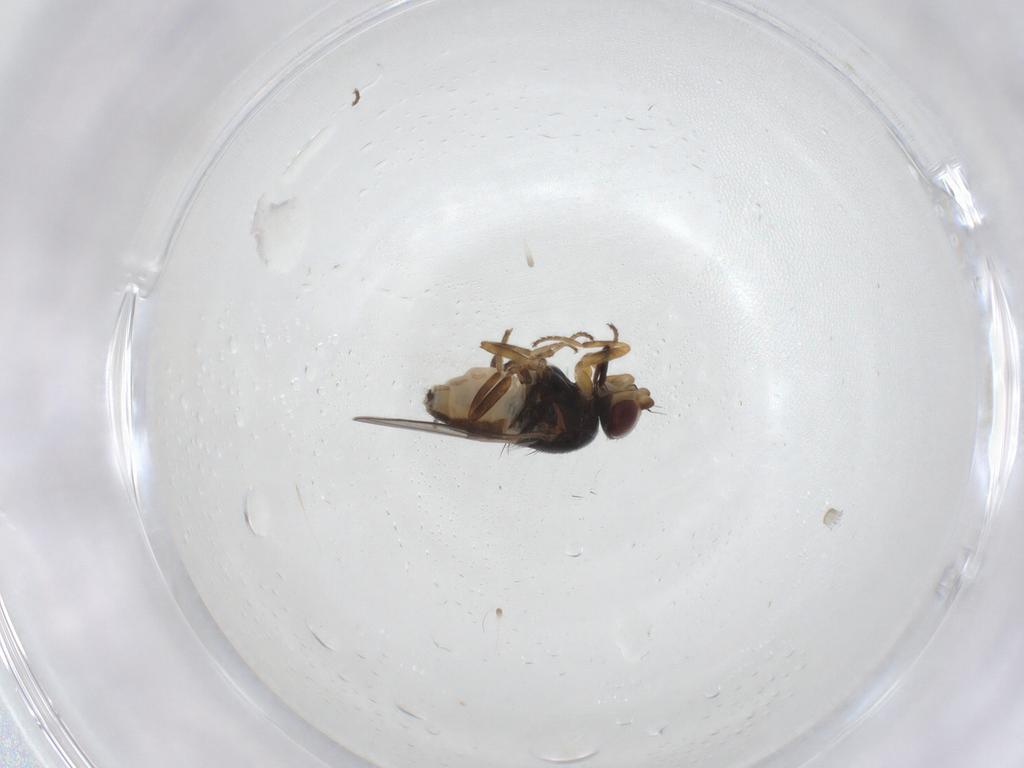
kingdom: Animalia
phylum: Arthropoda
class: Insecta
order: Diptera
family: Chloropidae
